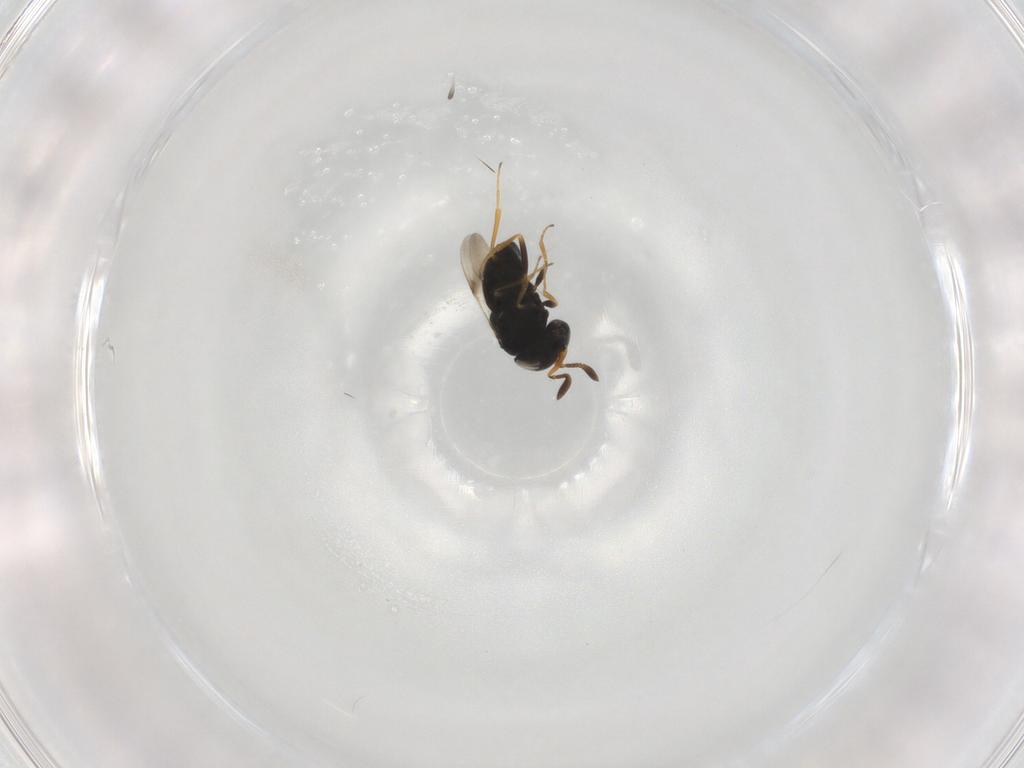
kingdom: Animalia
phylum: Arthropoda
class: Insecta
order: Hymenoptera
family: Scelionidae
